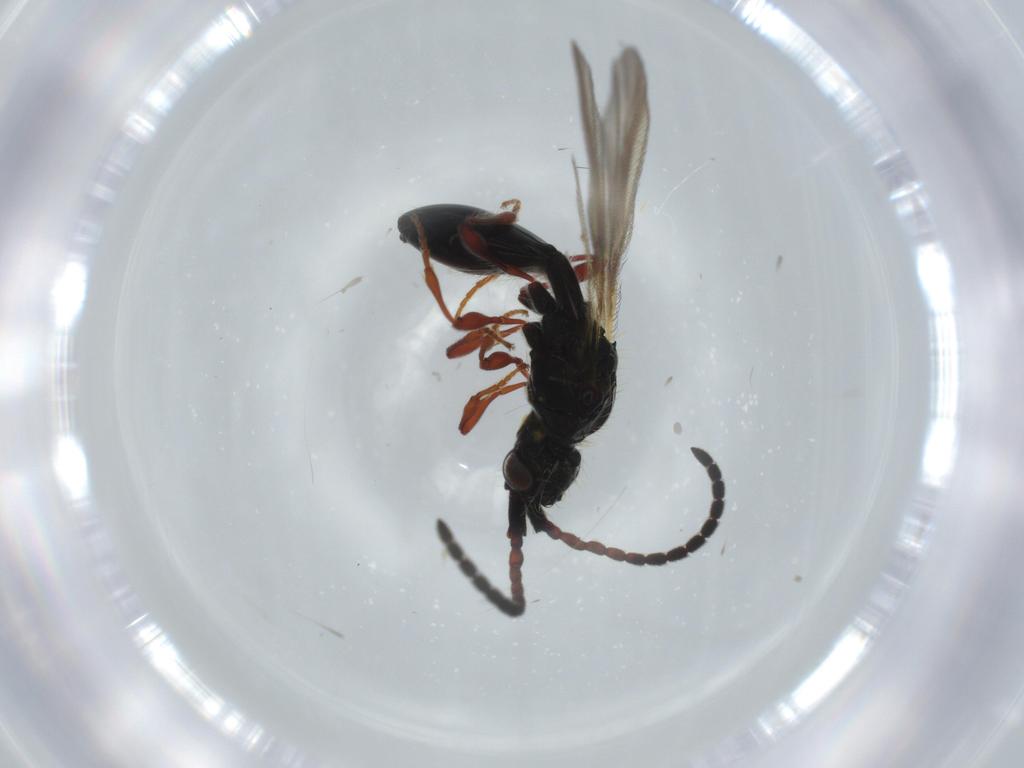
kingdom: Animalia
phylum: Arthropoda
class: Insecta
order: Hymenoptera
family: Diapriidae
